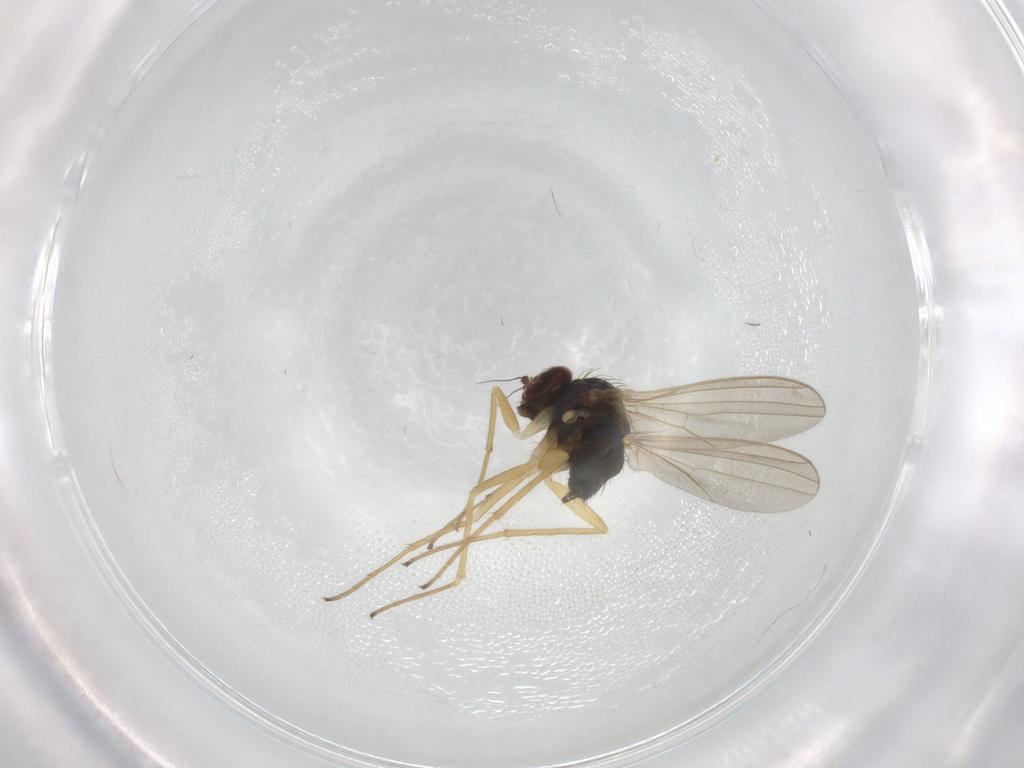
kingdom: Animalia
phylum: Arthropoda
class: Insecta
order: Diptera
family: Dolichopodidae
